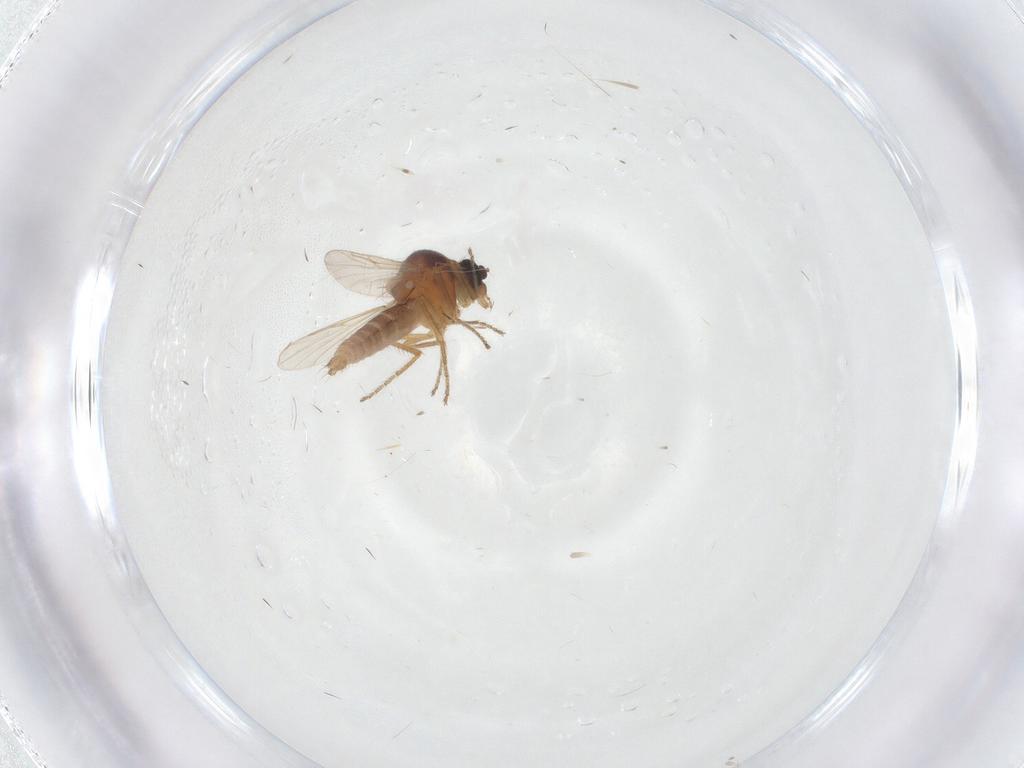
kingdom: Animalia
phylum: Arthropoda
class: Insecta
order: Diptera
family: Ceratopogonidae
